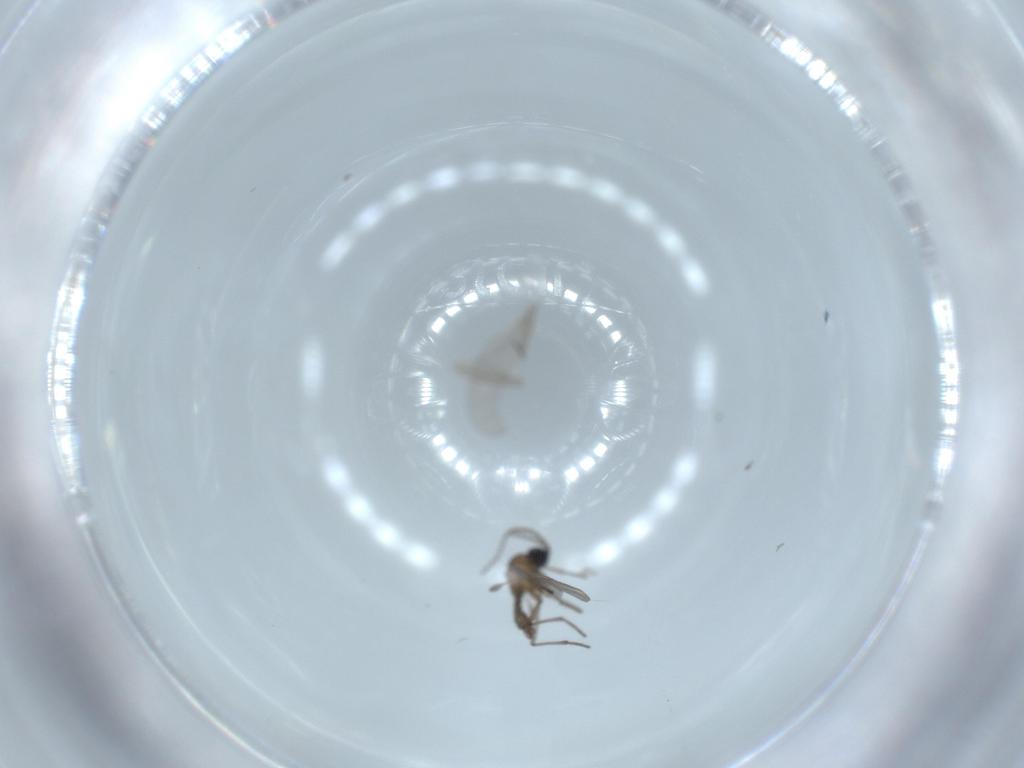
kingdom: Animalia
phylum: Arthropoda
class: Insecta
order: Diptera
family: Sciaridae
